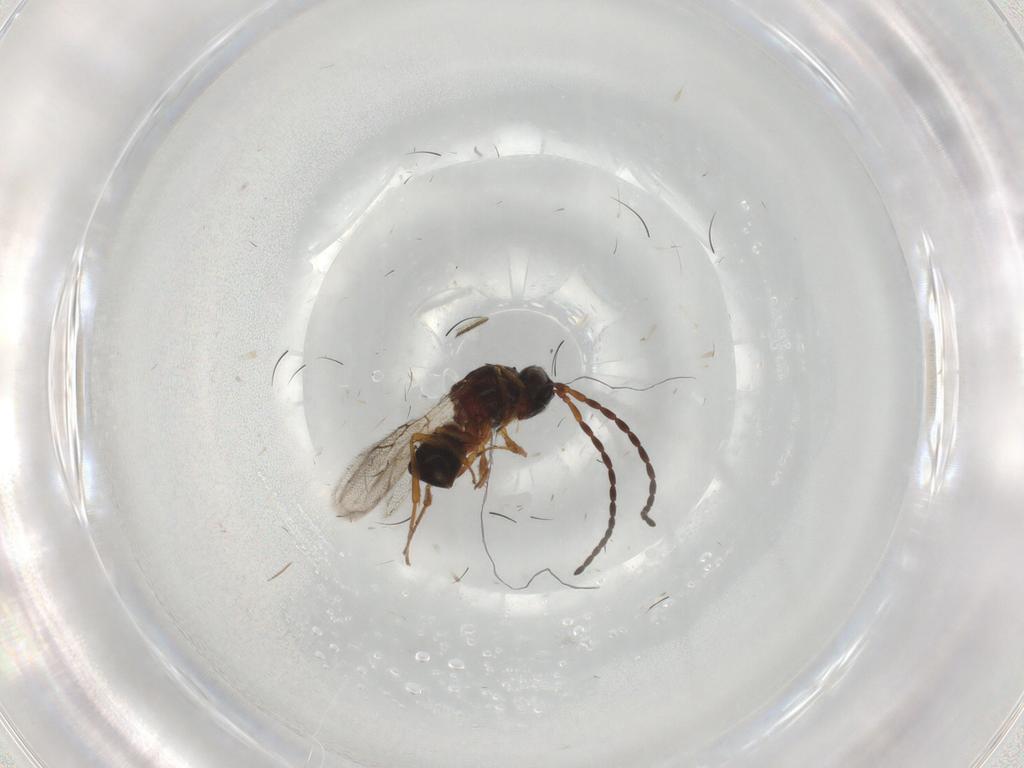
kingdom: Animalia
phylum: Arthropoda
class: Insecta
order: Hymenoptera
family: Figitidae
